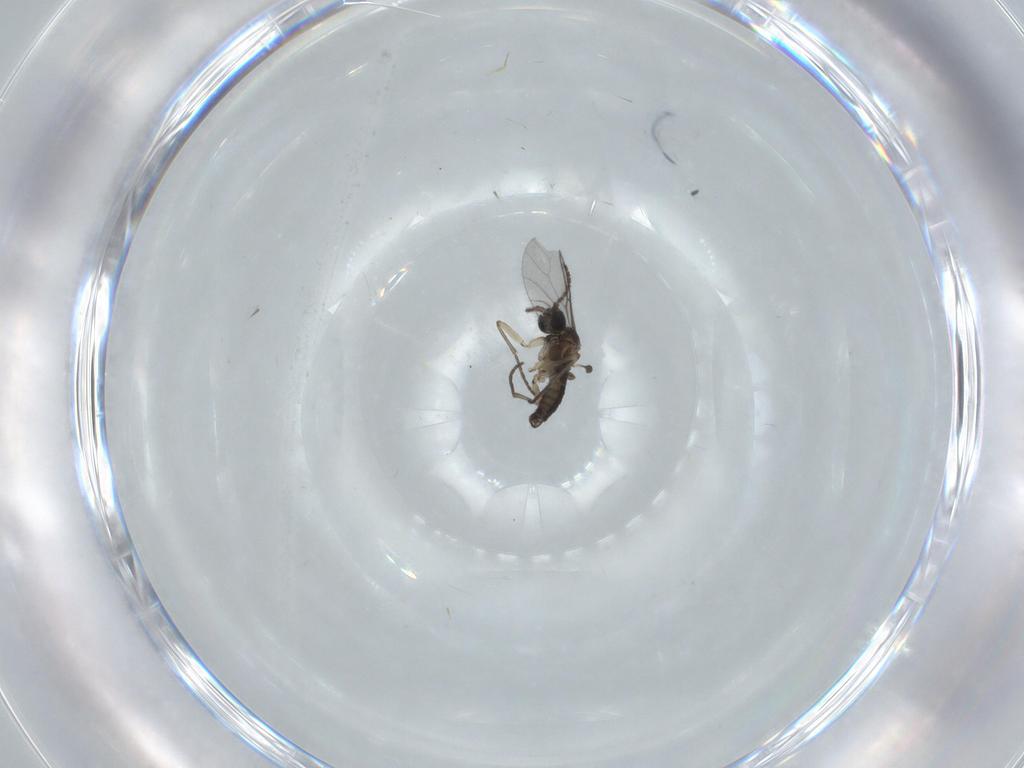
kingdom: Animalia
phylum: Arthropoda
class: Insecta
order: Diptera
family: Sciaridae
